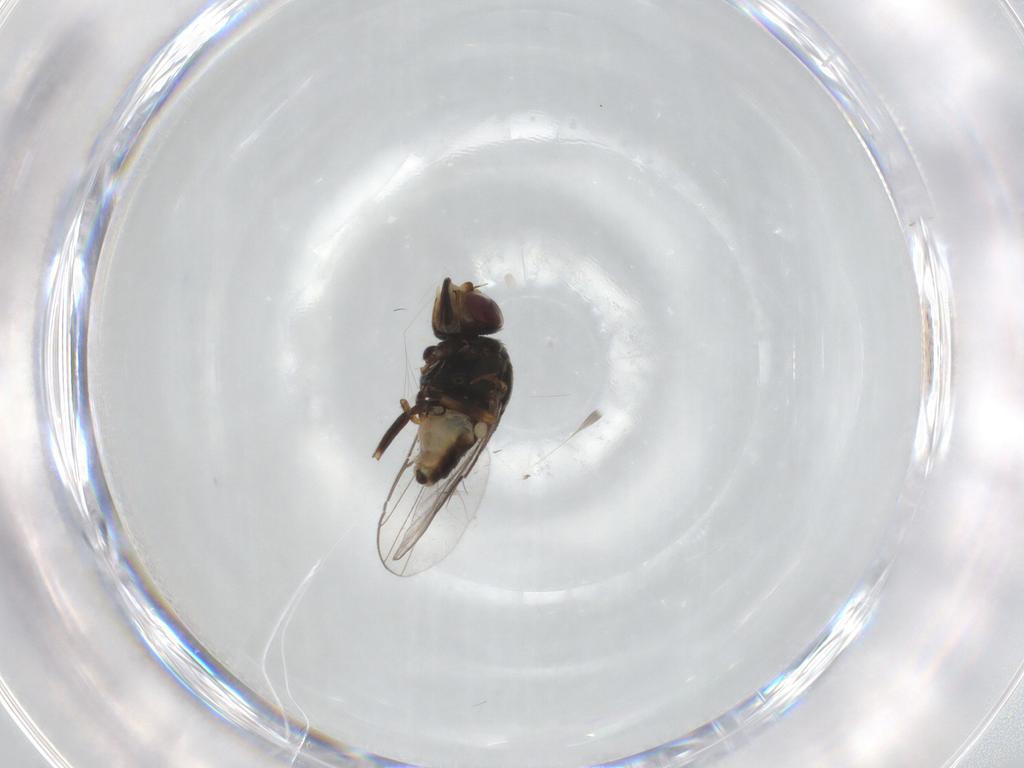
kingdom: Animalia
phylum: Arthropoda
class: Insecta
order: Diptera
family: Chloropidae
